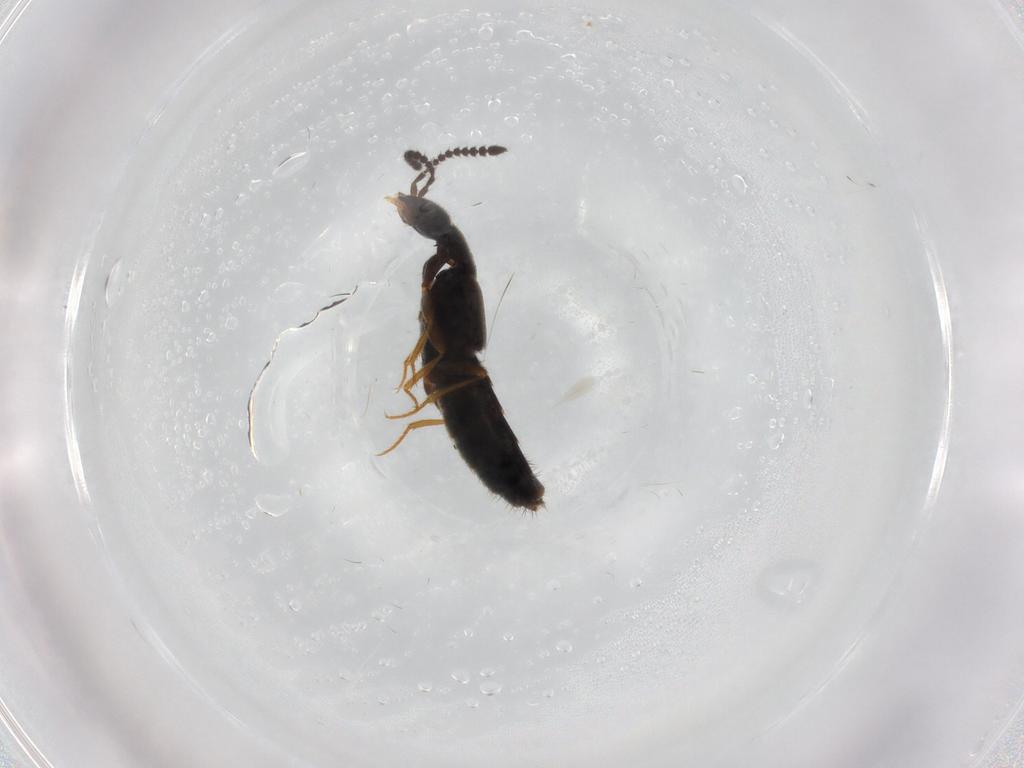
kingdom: Animalia
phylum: Arthropoda
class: Insecta
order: Coleoptera
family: Staphylinidae
